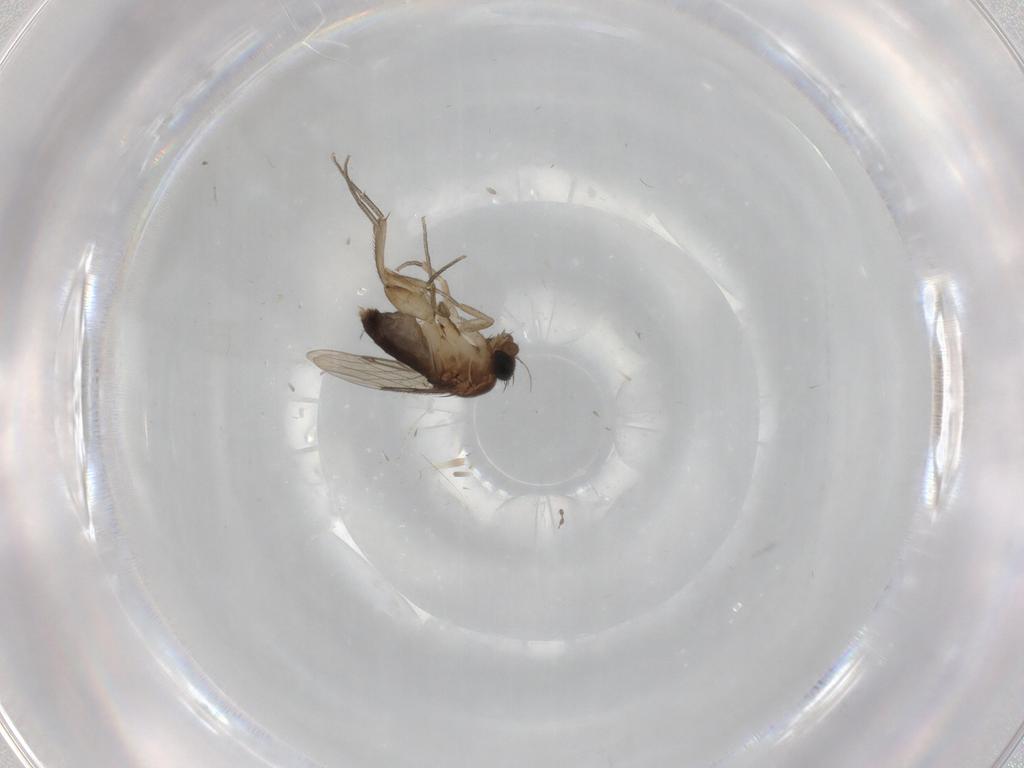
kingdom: Animalia
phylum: Arthropoda
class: Insecta
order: Diptera
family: Phoridae
